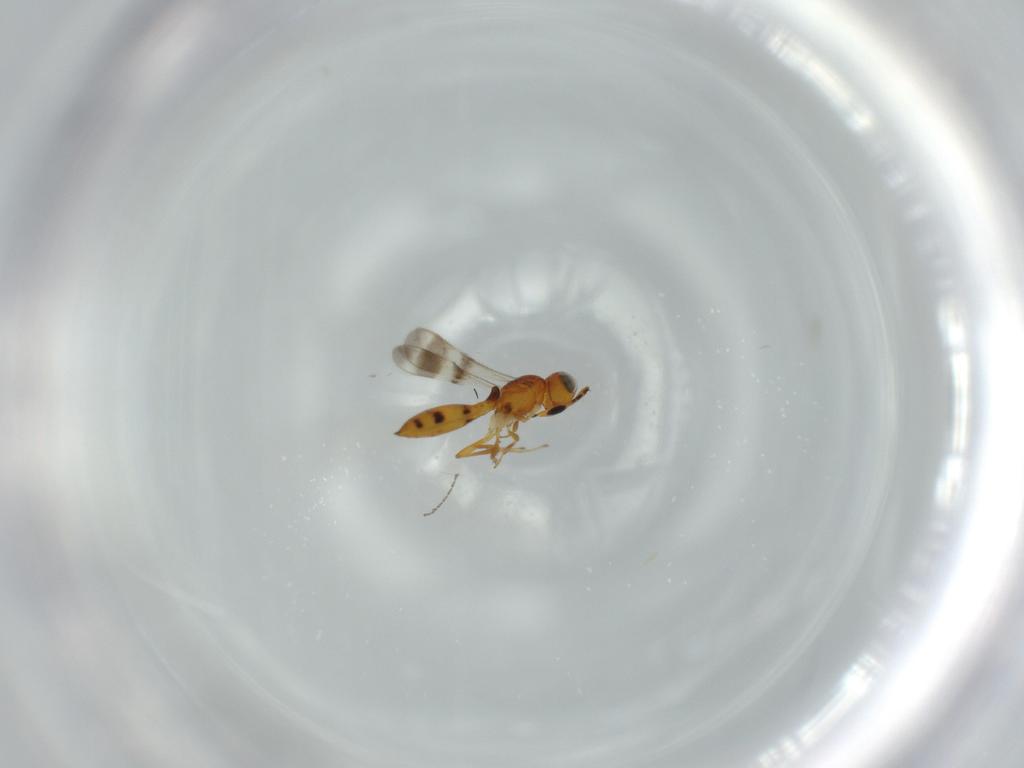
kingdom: Animalia
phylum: Arthropoda
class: Insecta
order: Hymenoptera
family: Scelionidae
